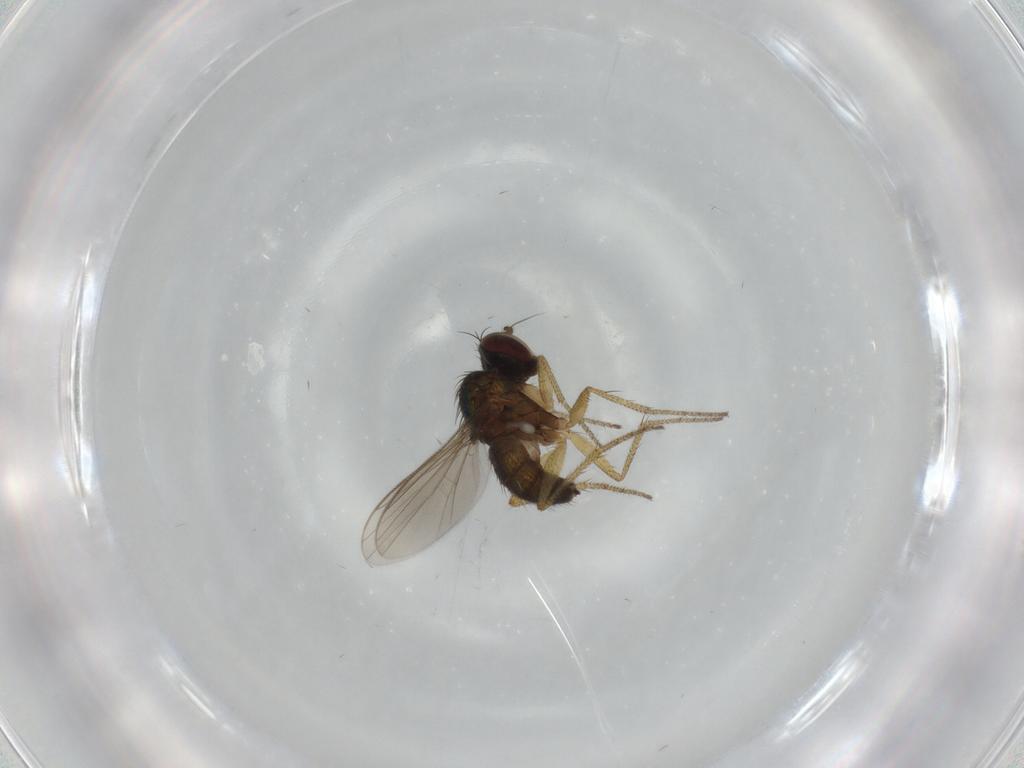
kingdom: Animalia
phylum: Arthropoda
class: Insecta
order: Diptera
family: Dolichopodidae
